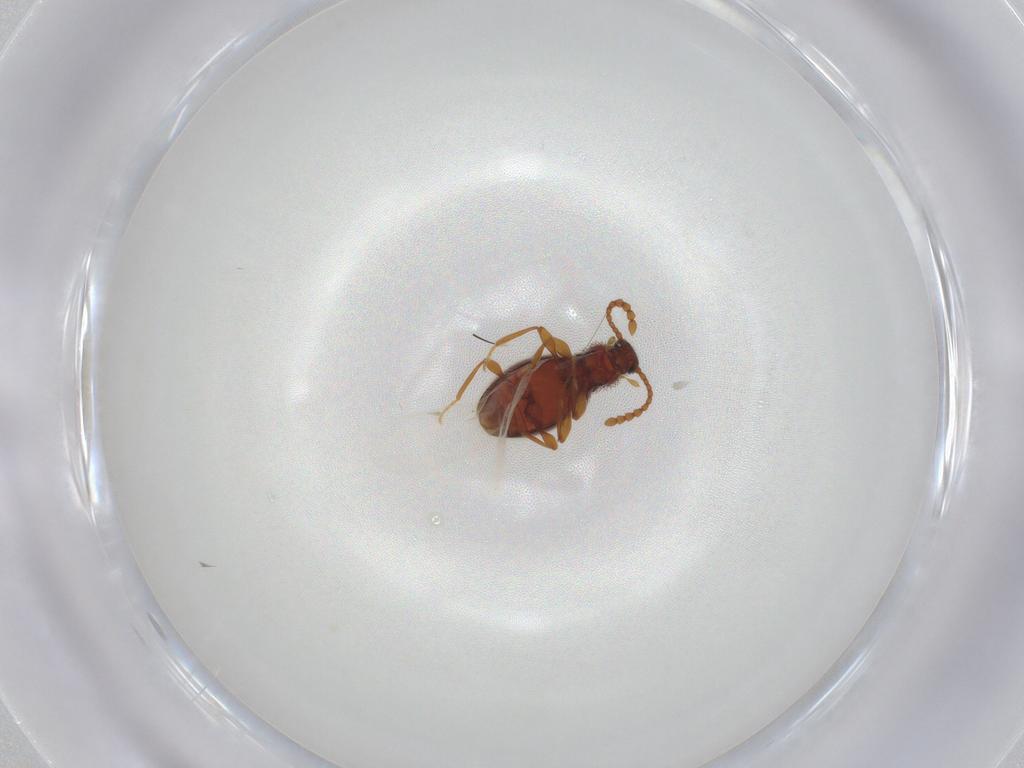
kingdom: Animalia
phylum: Arthropoda
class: Insecta
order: Coleoptera
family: Staphylinidae
